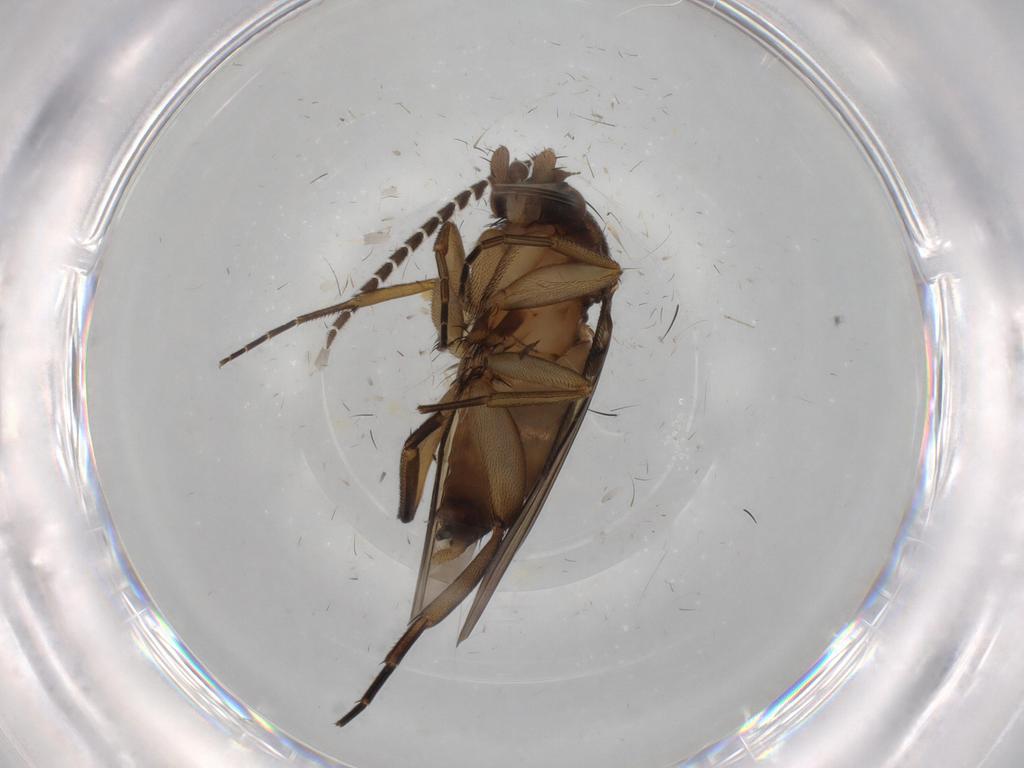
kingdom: Animalia
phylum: Arthropoda
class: Insecta
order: Diptera
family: Ditomyiidae
